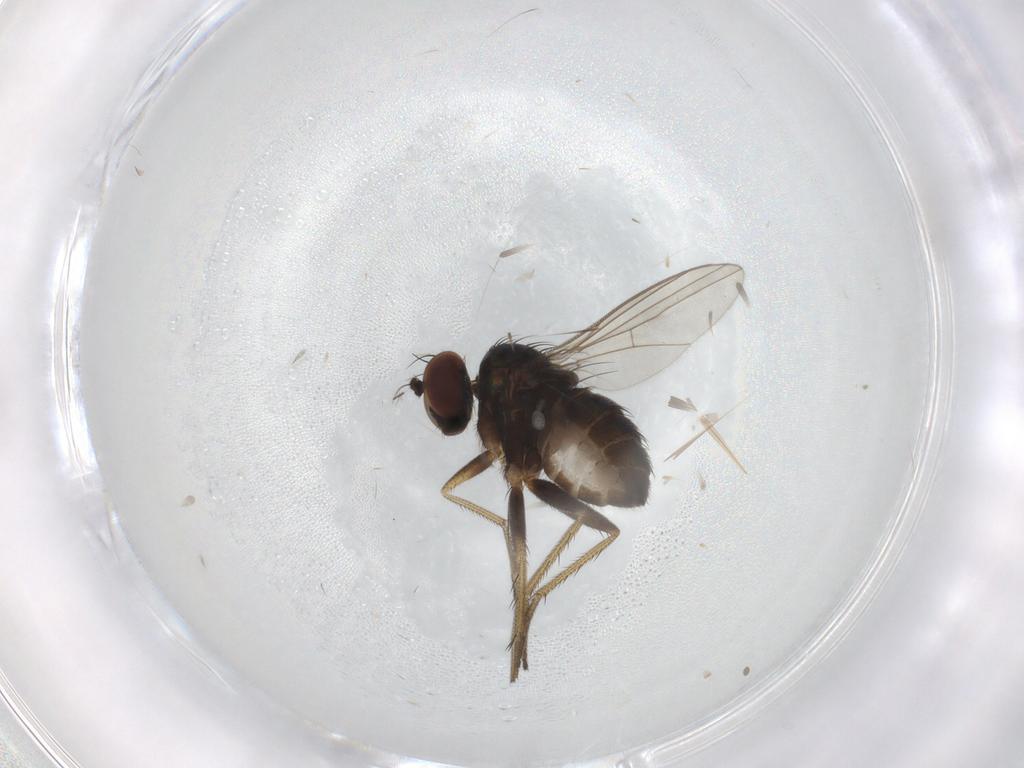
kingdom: Animalia
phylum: Arthropoda
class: Insecta
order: Diptera
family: Dolichopodidae
